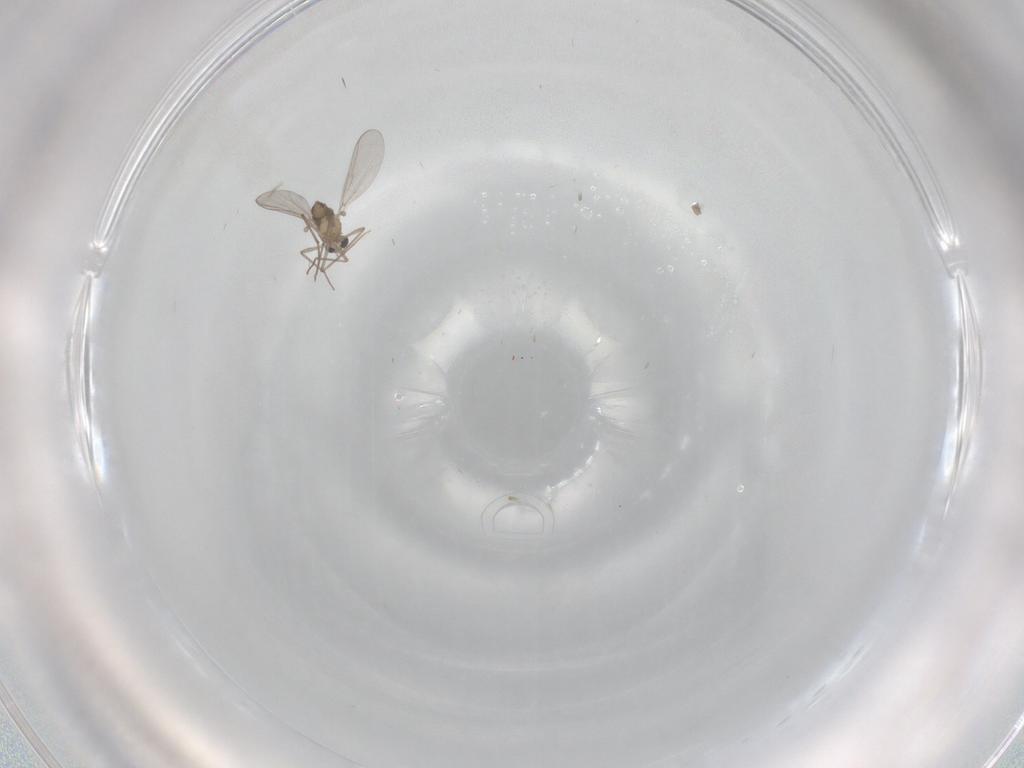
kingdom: Animalia
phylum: Arthropoda
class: Insecta
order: Diptera
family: Chironomidae
